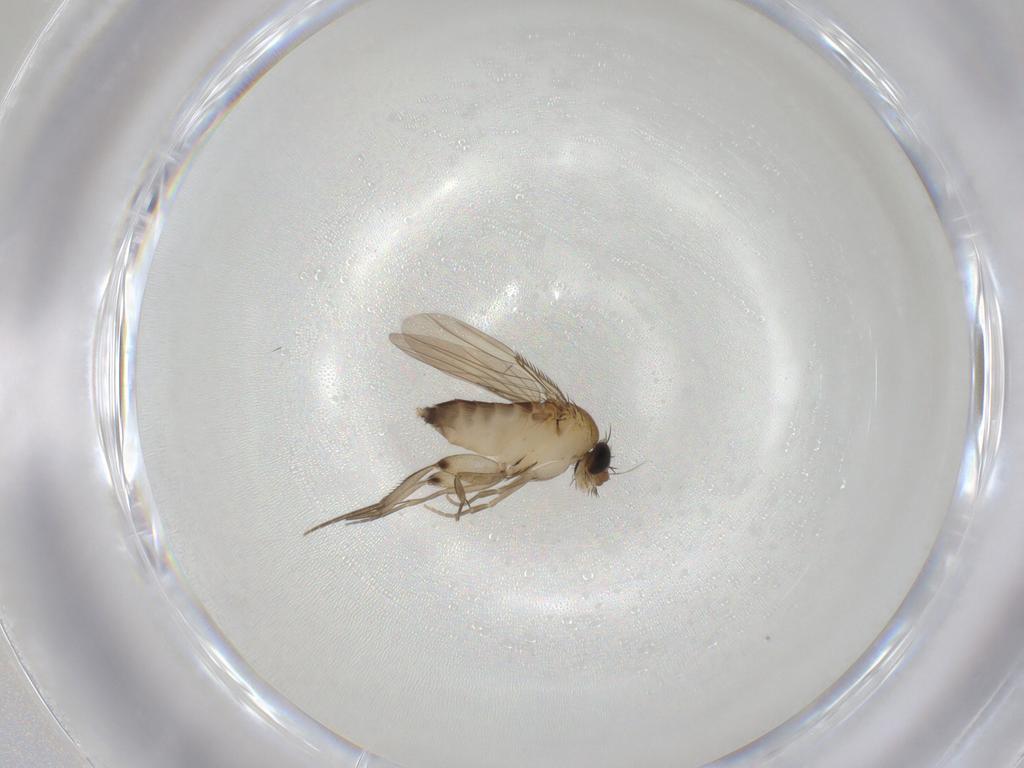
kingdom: Animalia
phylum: Arthropoda
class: Insecta
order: Diptera
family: Phoridae
